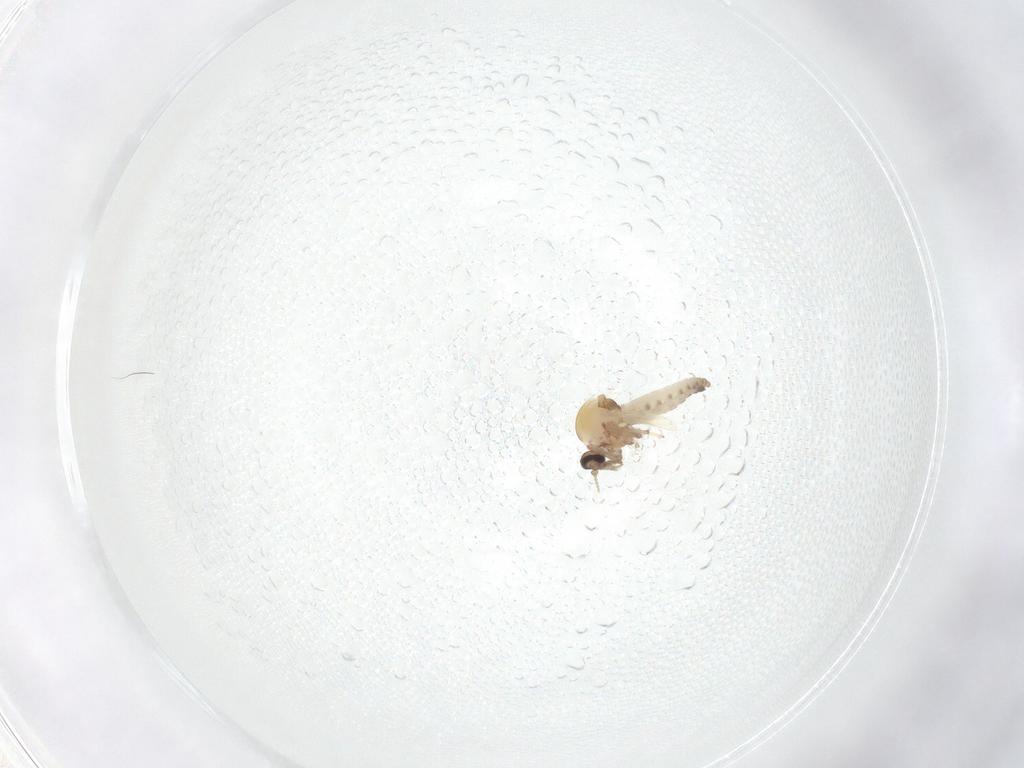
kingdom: Animalia
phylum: Arthropoda
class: Insecta
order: Diptera
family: Ceratopogonidae
